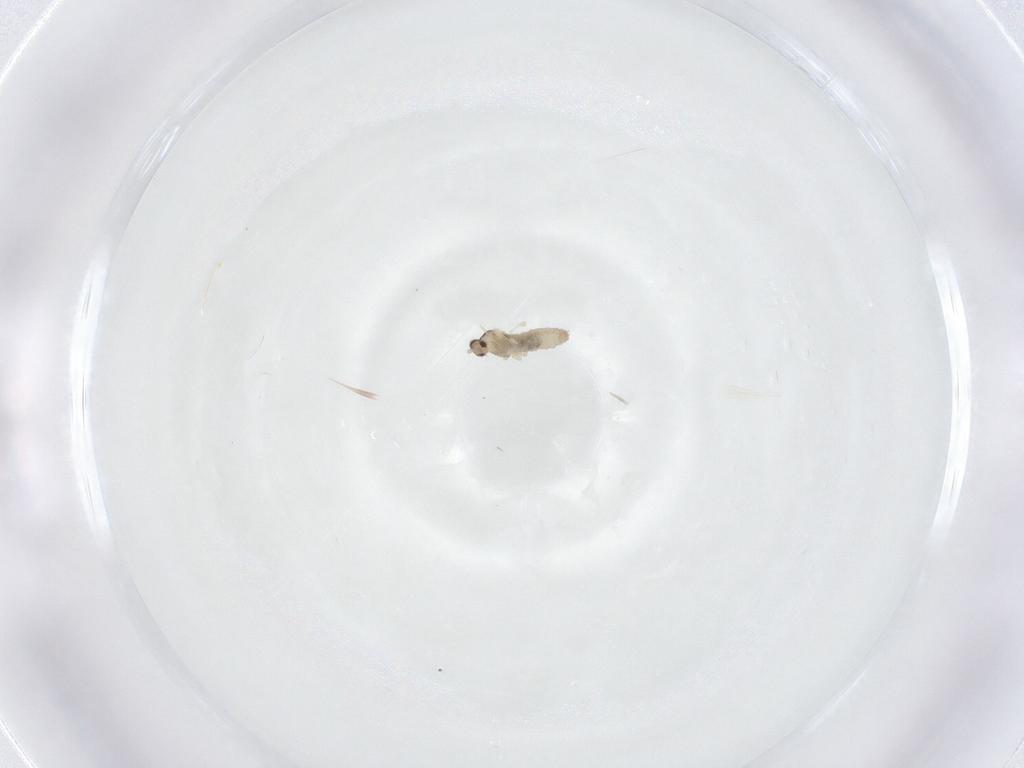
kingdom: Animalia
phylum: Arthropoda
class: Insecta
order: Diptera
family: Cecidomyiidae
